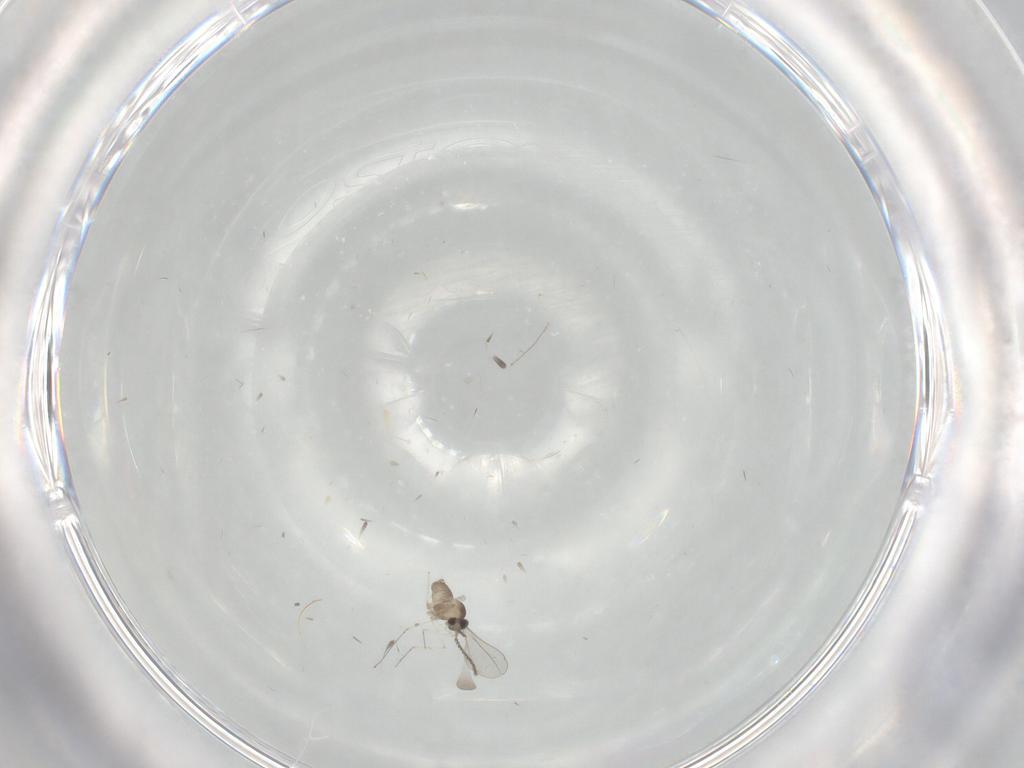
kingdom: Animalia
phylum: Arthropoda
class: Insecta
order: Diptera
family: Cecidomyiidae
